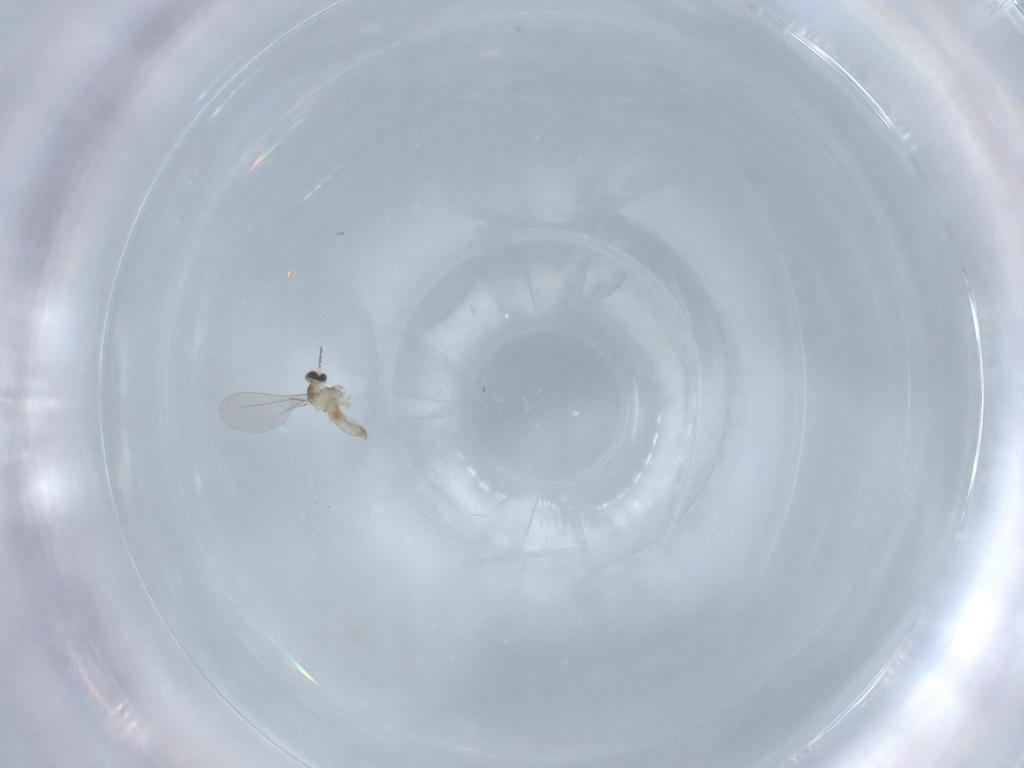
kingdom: Animalia
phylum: Arthropoda
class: Insecta
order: Diptera
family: Cecidomyiidae
